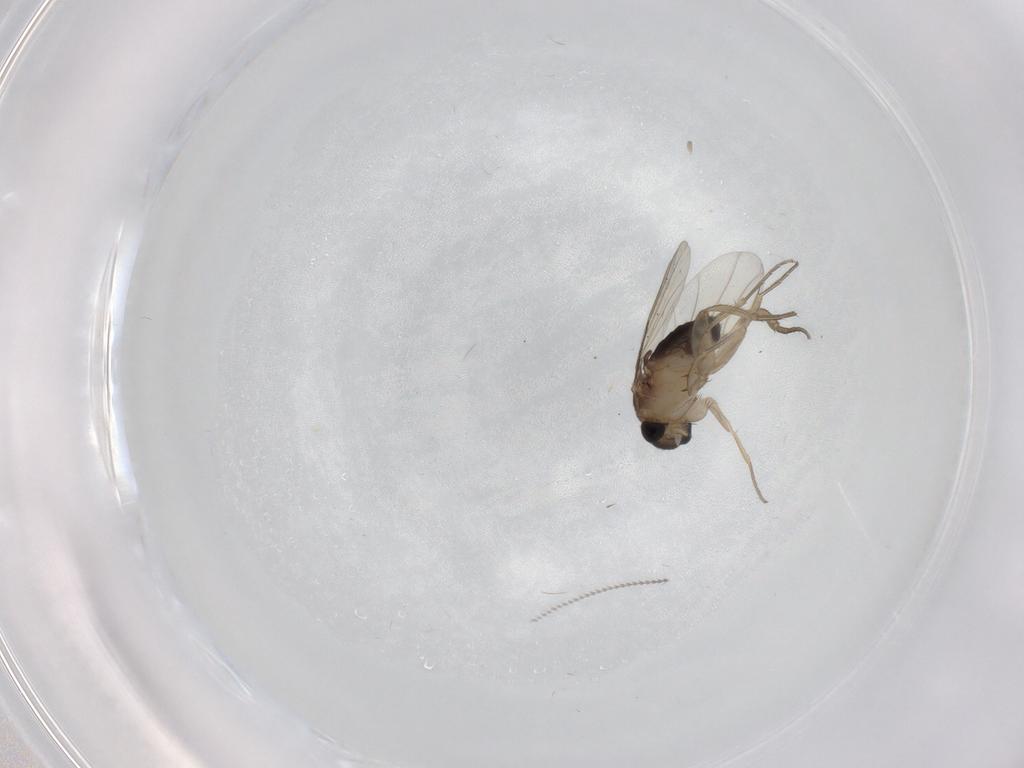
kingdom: Animalia
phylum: Arthropoda
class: Insecta
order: Diptera
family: Phoridae
